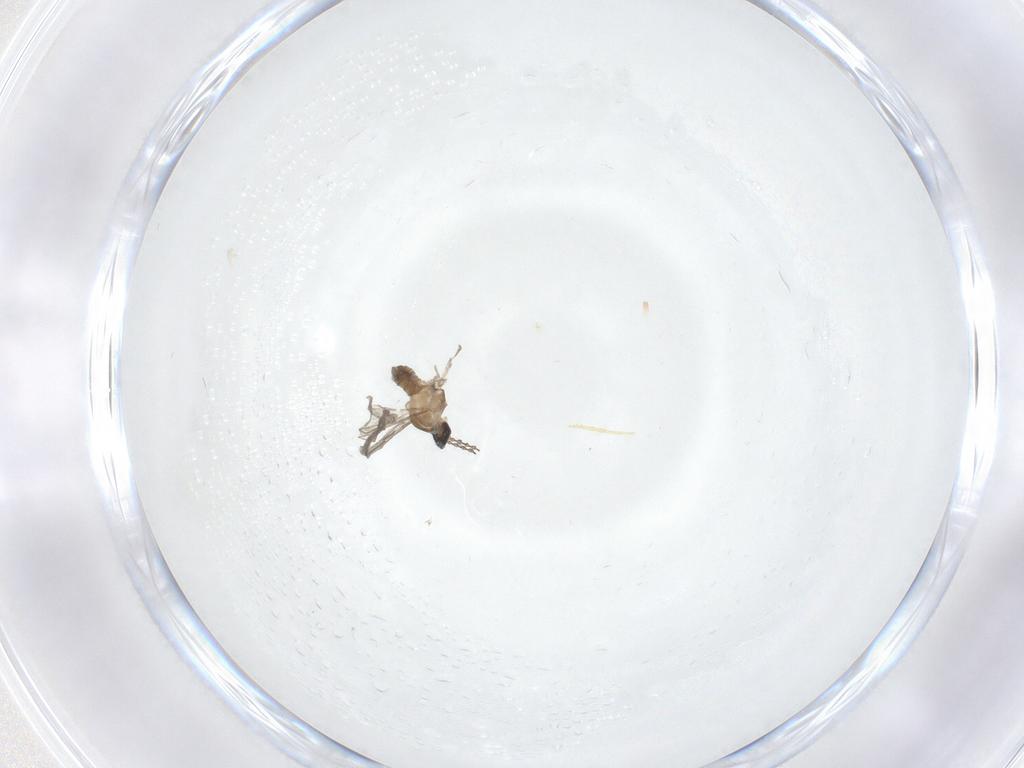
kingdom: Animalia
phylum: Arthropoda
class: Insecta
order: Diptera
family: Cecidomyiidae
